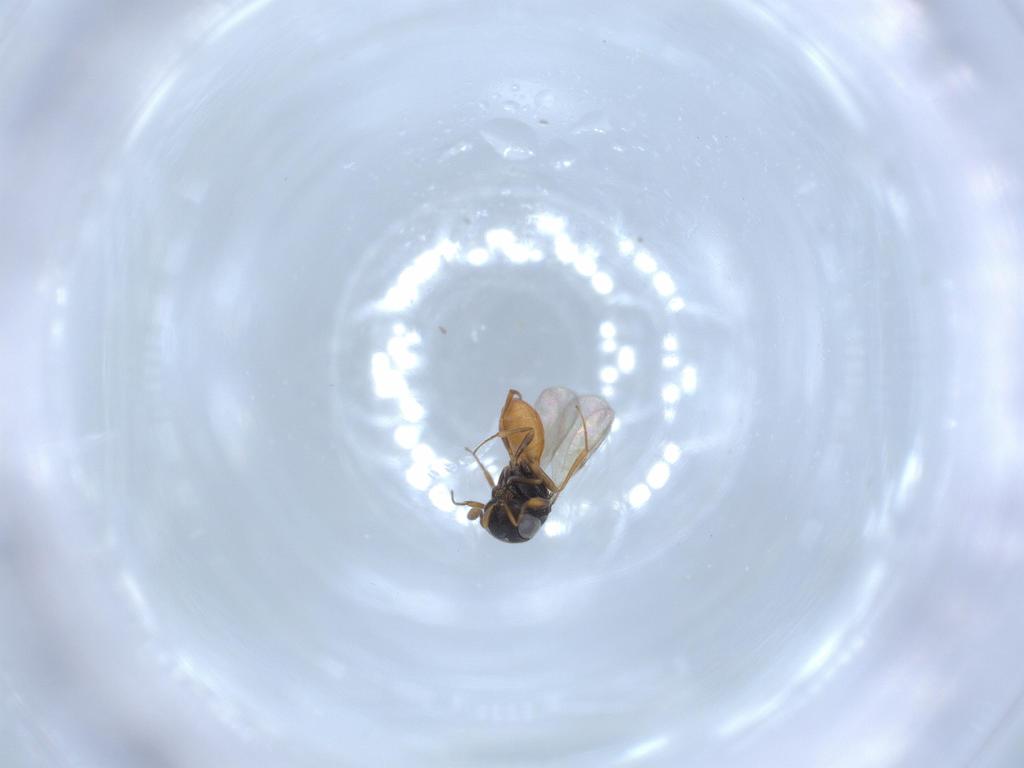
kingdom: Animalia
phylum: Arthropoda
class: Insecta
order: Hymenoptera
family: Scelionidae
